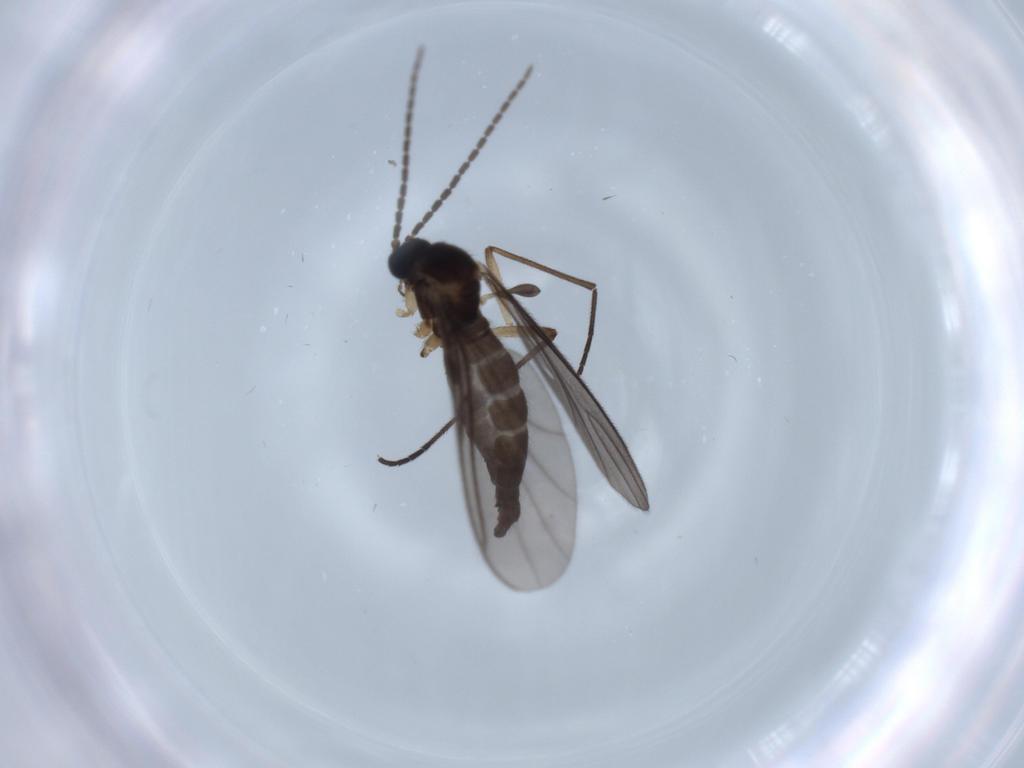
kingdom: Animalia
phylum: Arthropoda
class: Insecta
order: Diptera
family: Sciaridae
